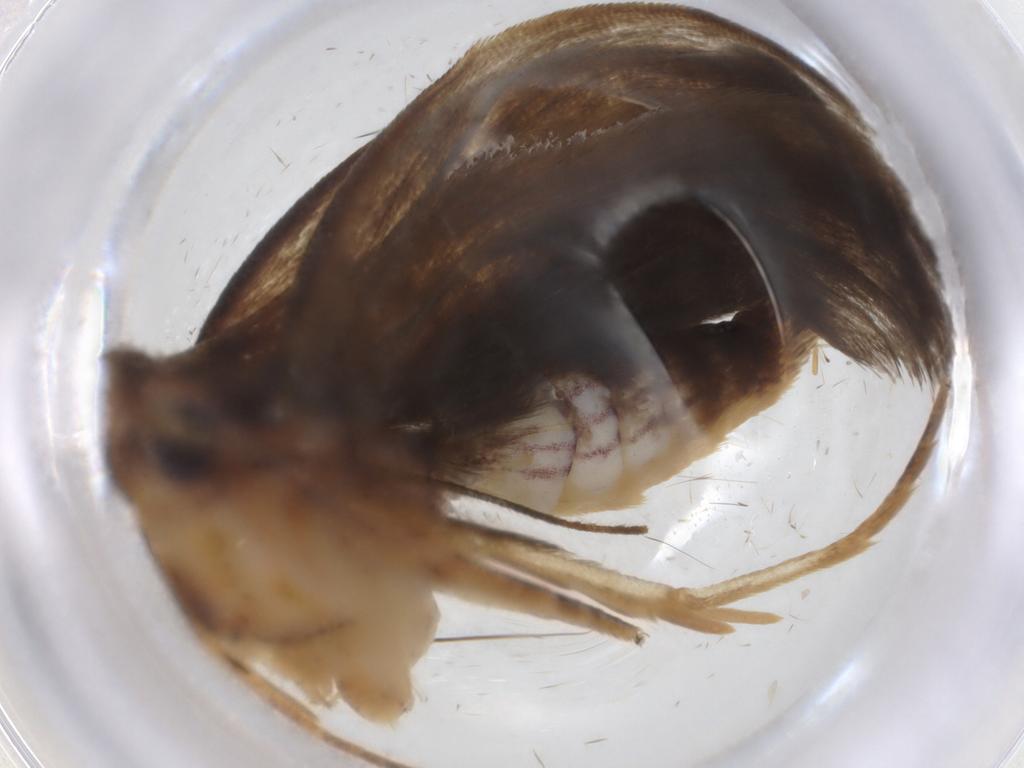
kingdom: Animalia
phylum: Arthropoda
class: Insecta
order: Lepidoptera
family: Depressariidae
